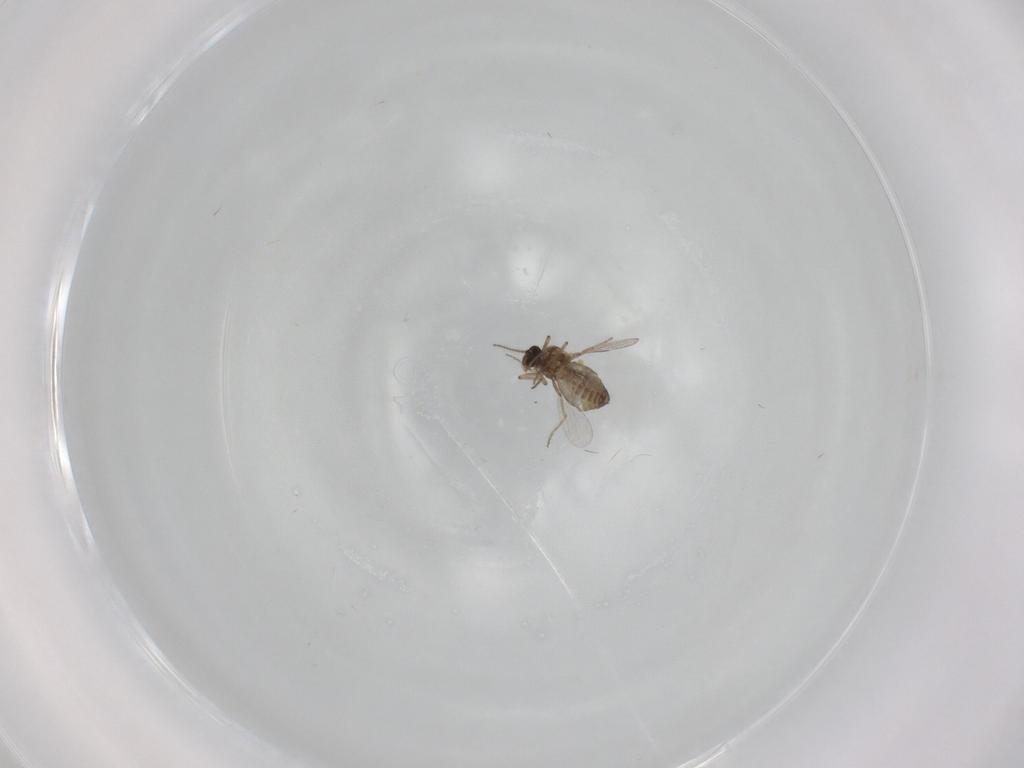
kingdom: Animalia
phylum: Arthropoda
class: Insecta
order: Diptera
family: Ceratopogonidae
